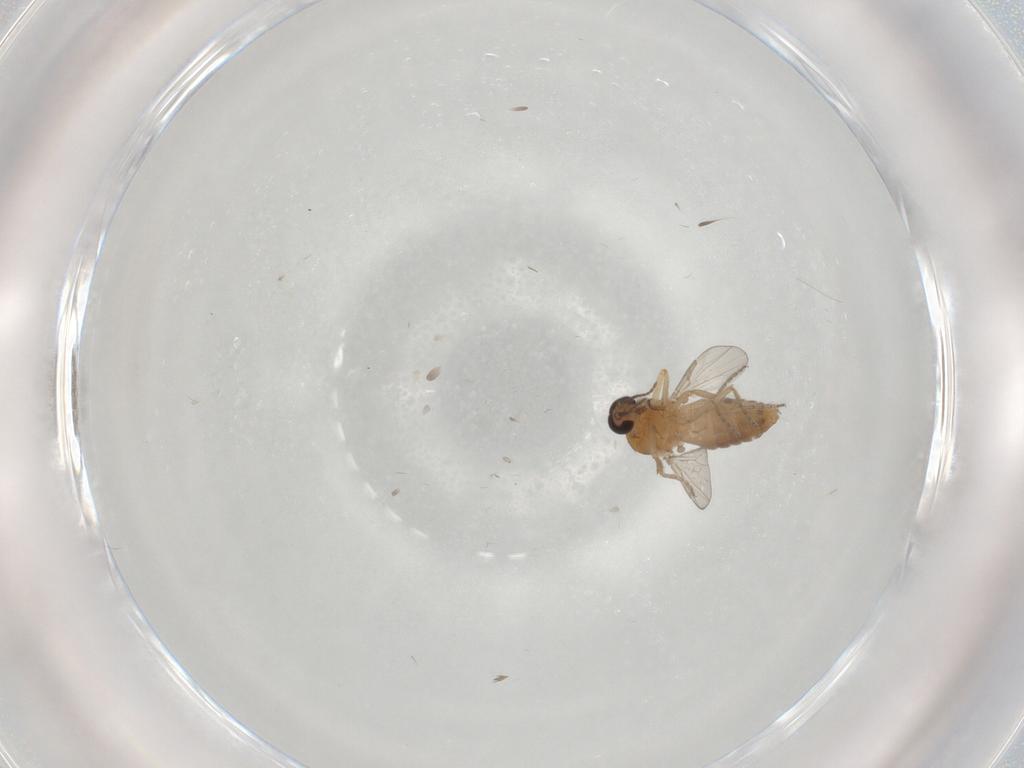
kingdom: Animalia
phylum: Arthropoda
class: Insecta
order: Diptera
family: Ceratopogonidae
